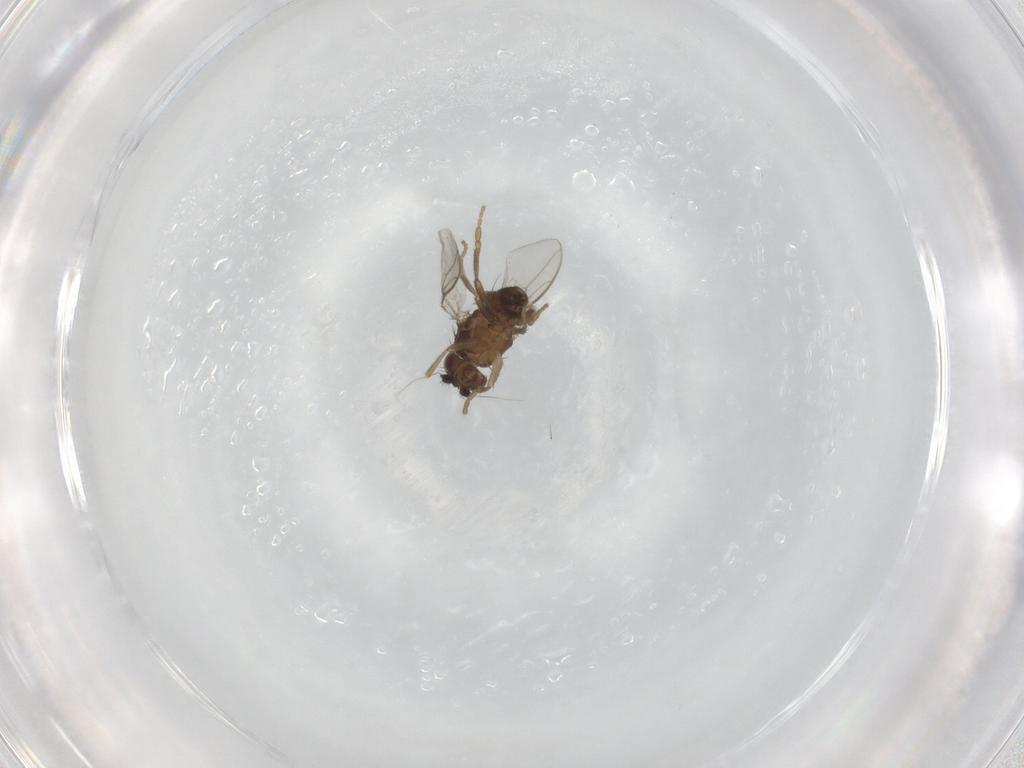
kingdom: Animalia
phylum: Arthropoda
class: Insecta
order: Diptera
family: Sphaeroceridae
